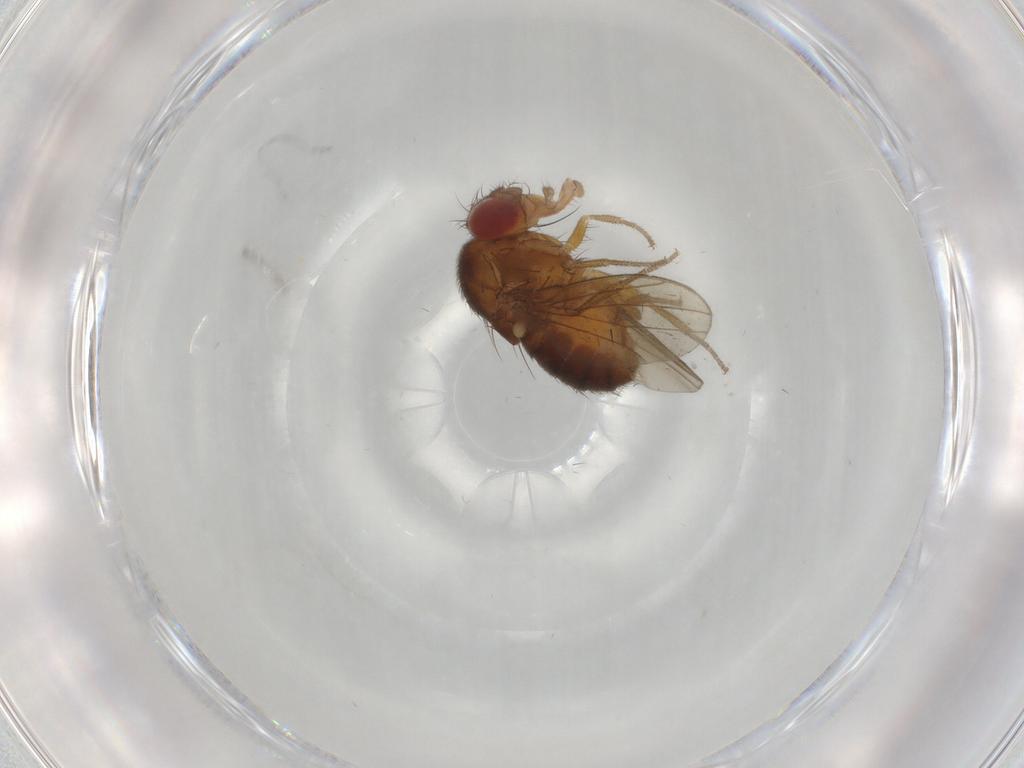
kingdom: Animalia
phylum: Arthropoda
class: Insecta
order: Diptera
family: Drosophilidae
